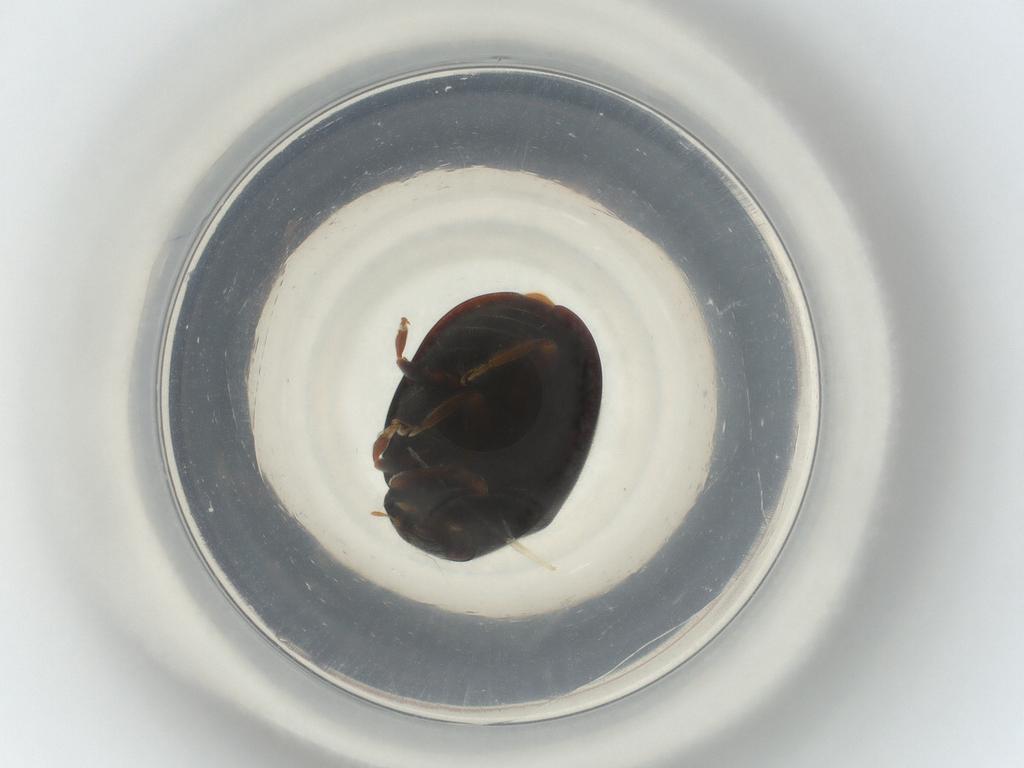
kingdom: Animalia
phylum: Arthropoda
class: Insecta
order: Coleoptera
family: Coccinellidae
